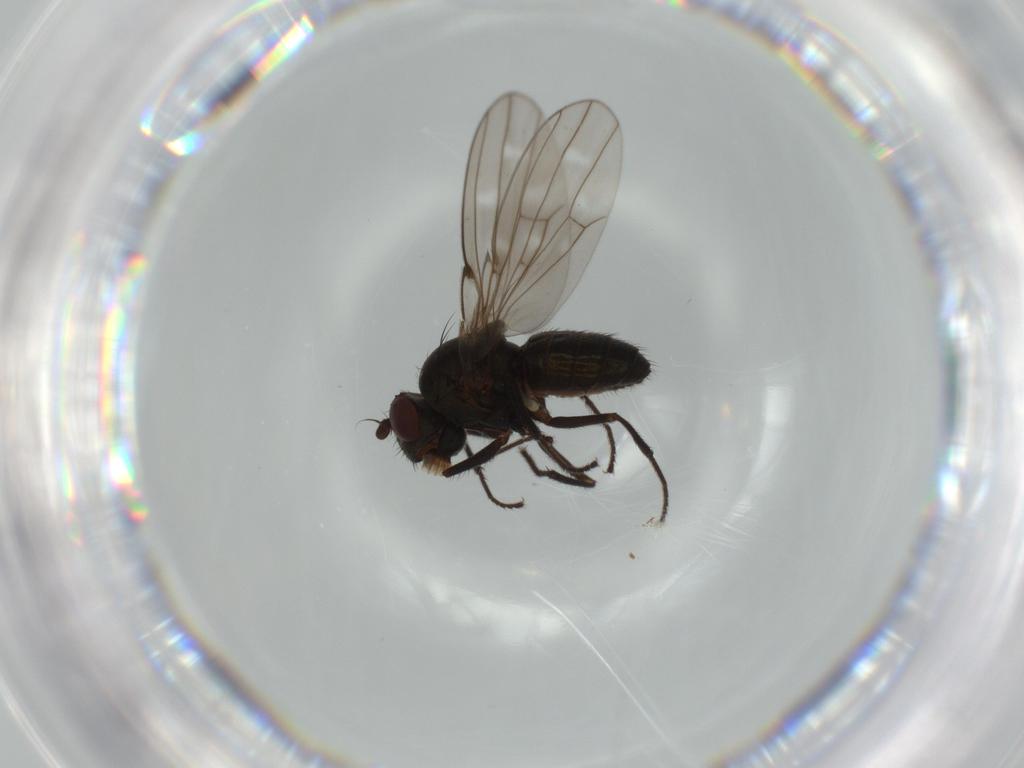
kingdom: Animalia
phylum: Arthropoda
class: Insecta
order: Diptera
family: Ephydridae
